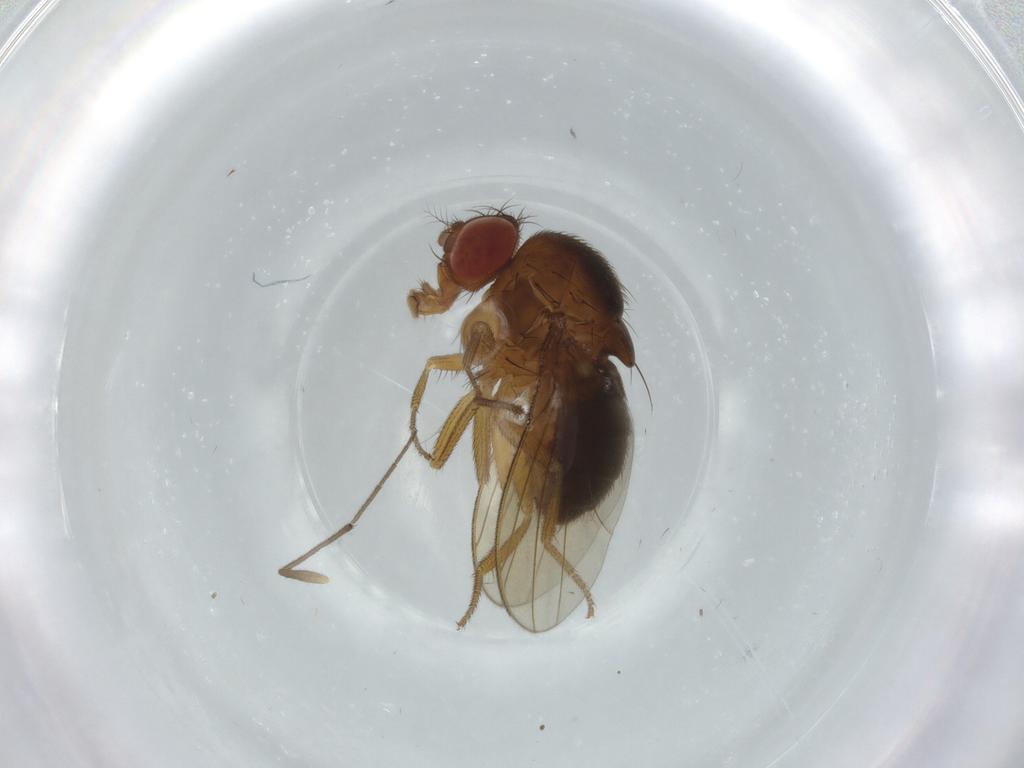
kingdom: Animalia
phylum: Arthropoda
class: Insecta
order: Diptera
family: Drosophilidae
